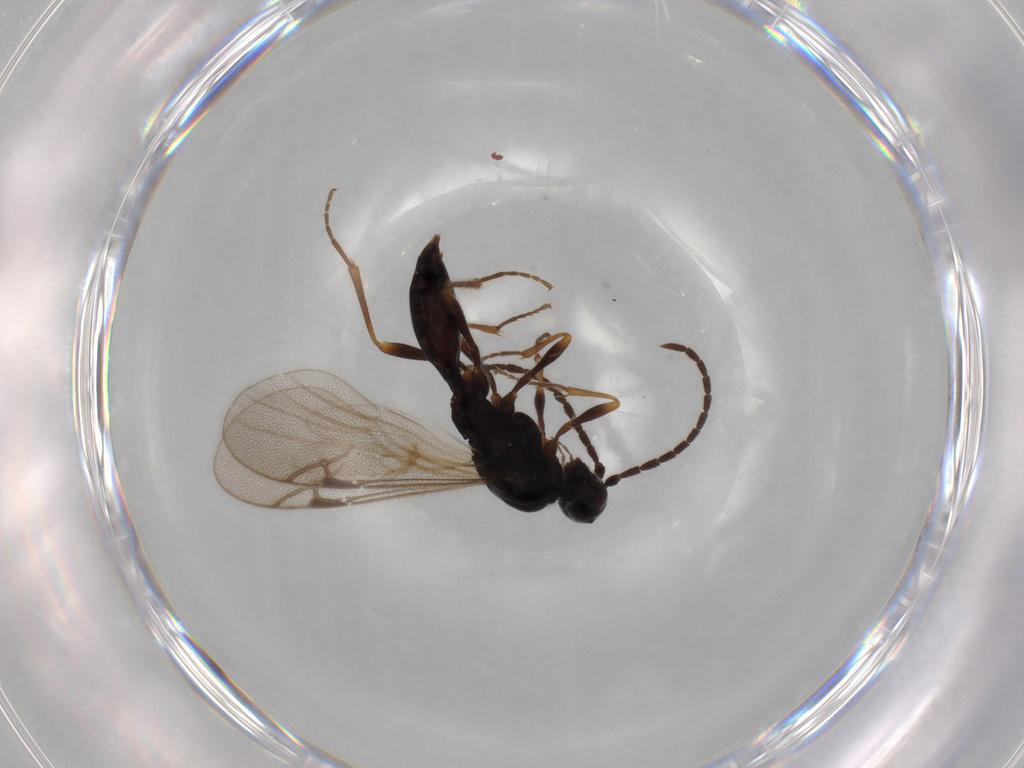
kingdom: Animalia
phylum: Arthropoda
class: Insecta
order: Hymenoptera
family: Proctotrupidae
